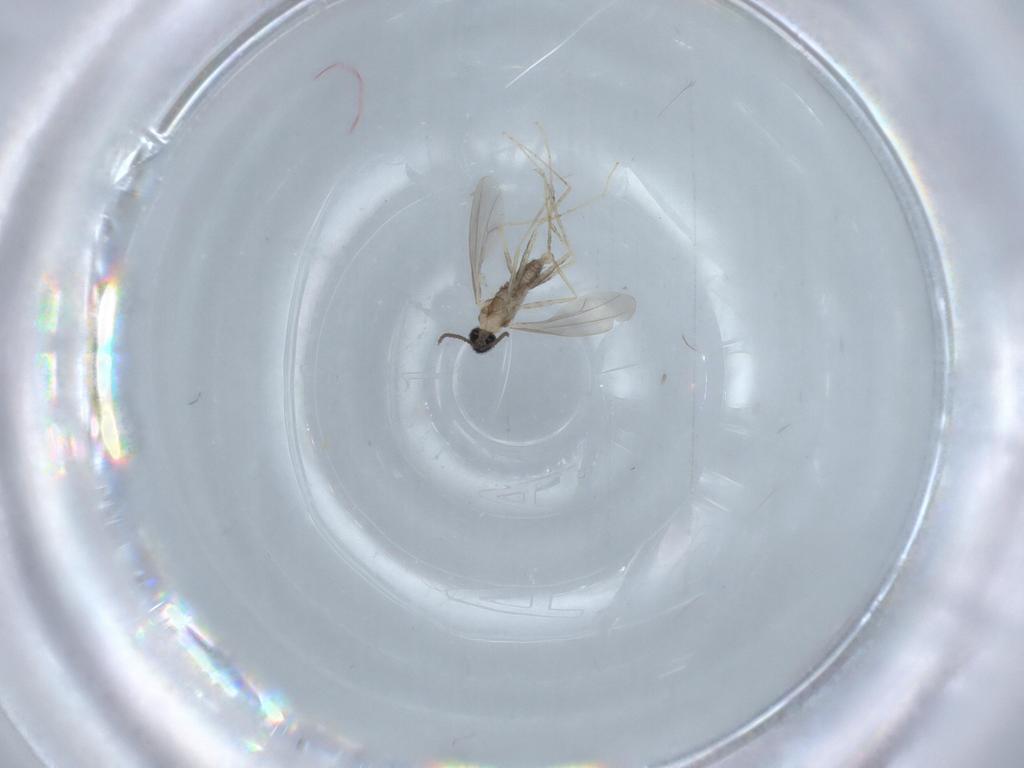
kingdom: Animalia
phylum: Arthropoda
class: Insecta
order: Diptera
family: Cecidomyiidae
